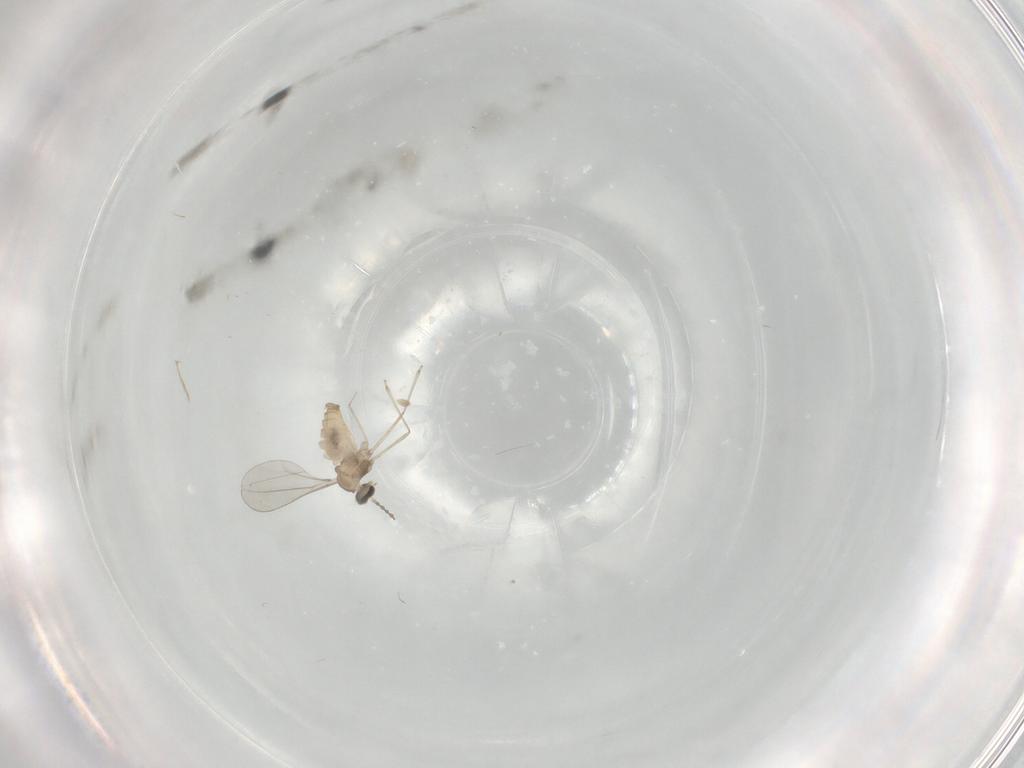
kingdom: Animalia
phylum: Arthropoda
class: Insecta
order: Diptera
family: Cecidomyiidae
